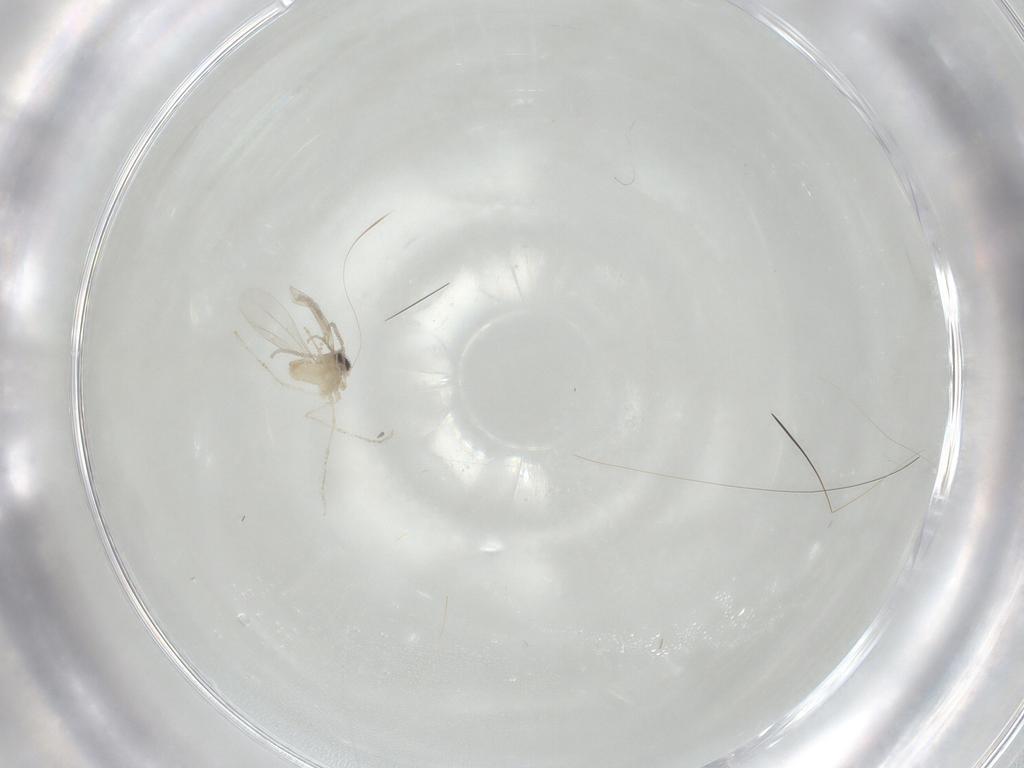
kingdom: Animalia
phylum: Arthropoda
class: Insecta
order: Diptera
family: Cecidomyiidae
